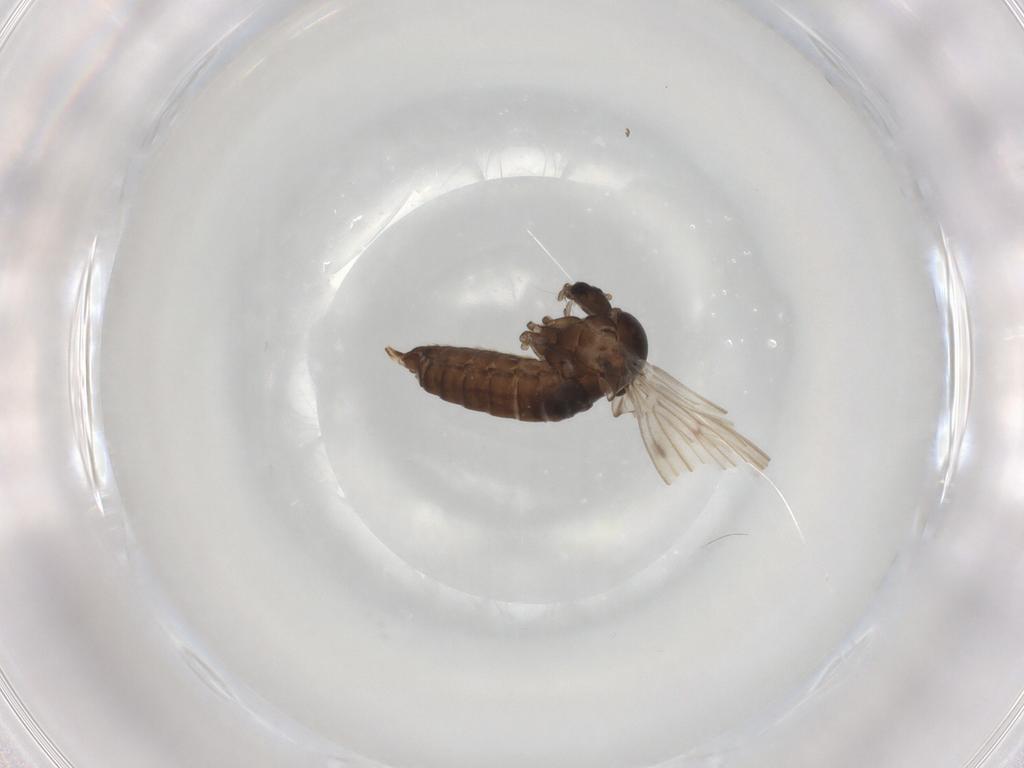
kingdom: Animalia
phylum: Arthropoda
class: Insecta
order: Diptera
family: Psychodidae
